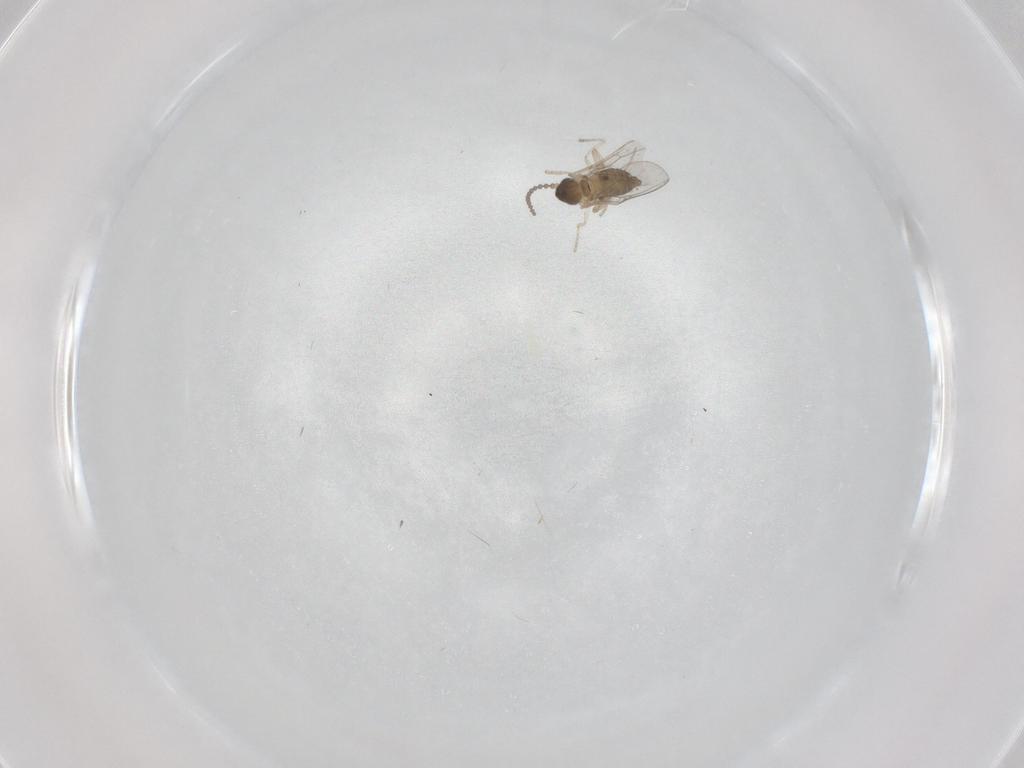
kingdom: Animalia
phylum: Arthropoda
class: Insecta
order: Diptera
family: Cecidomyiidae
